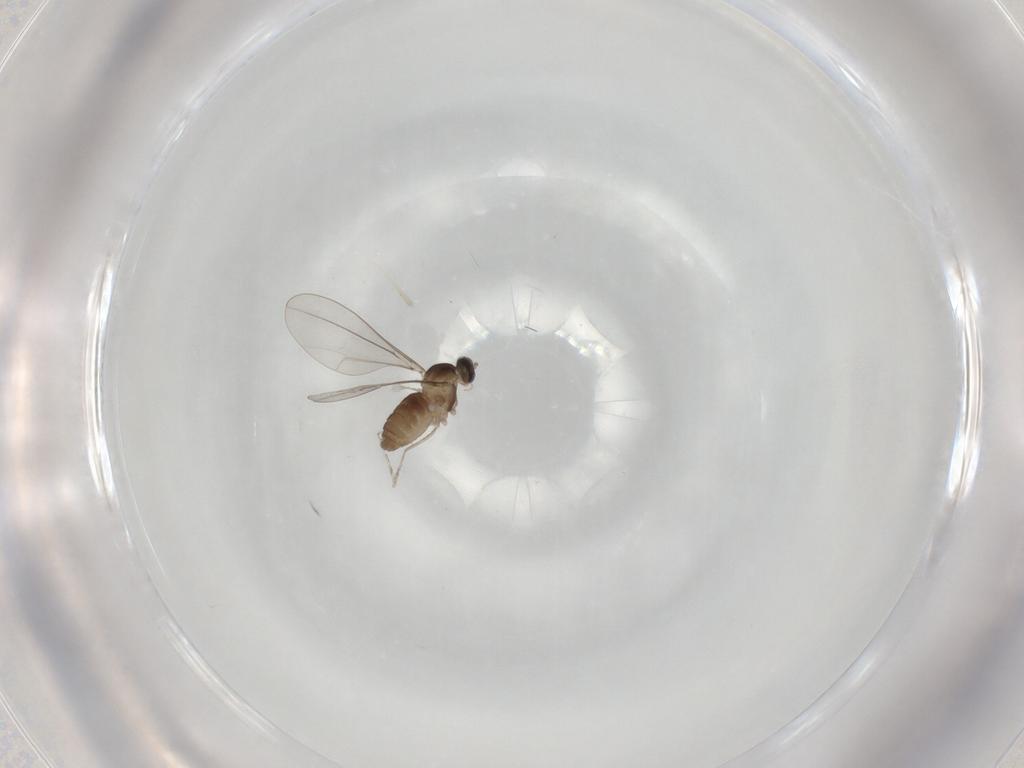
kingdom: Animalia
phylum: Arthropoda
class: Insecta
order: Diptera
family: Cecidomyiidae
